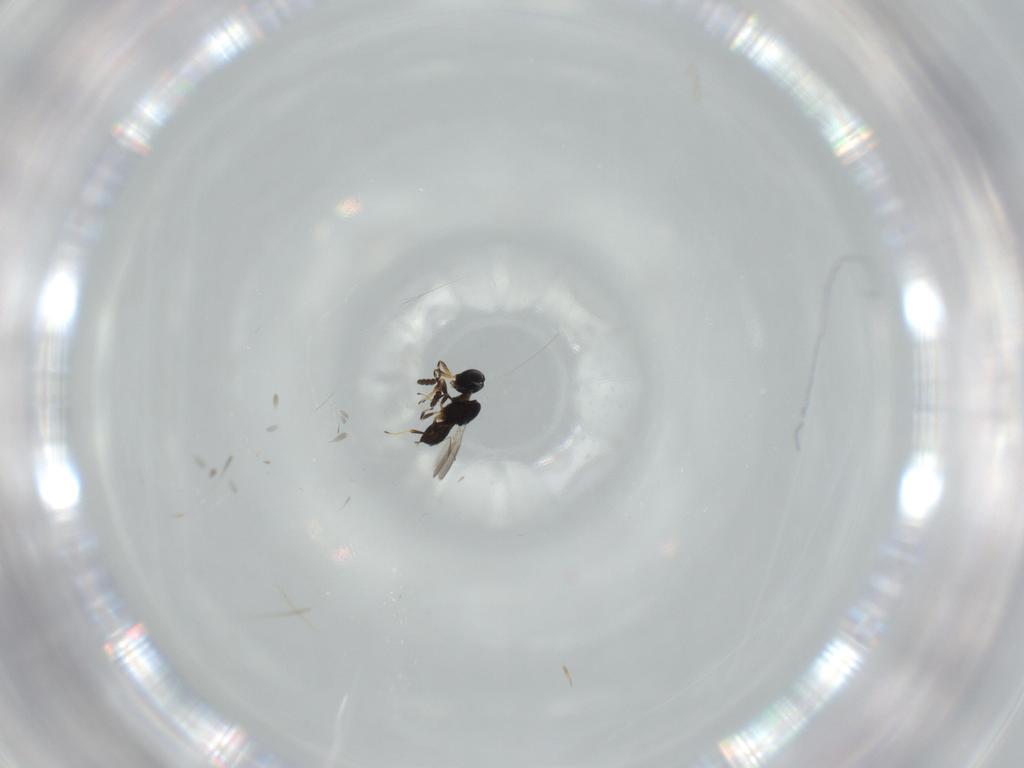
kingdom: Animalia
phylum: Arthropoda
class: Insecta
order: Hymenoptera
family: Scelionidae
